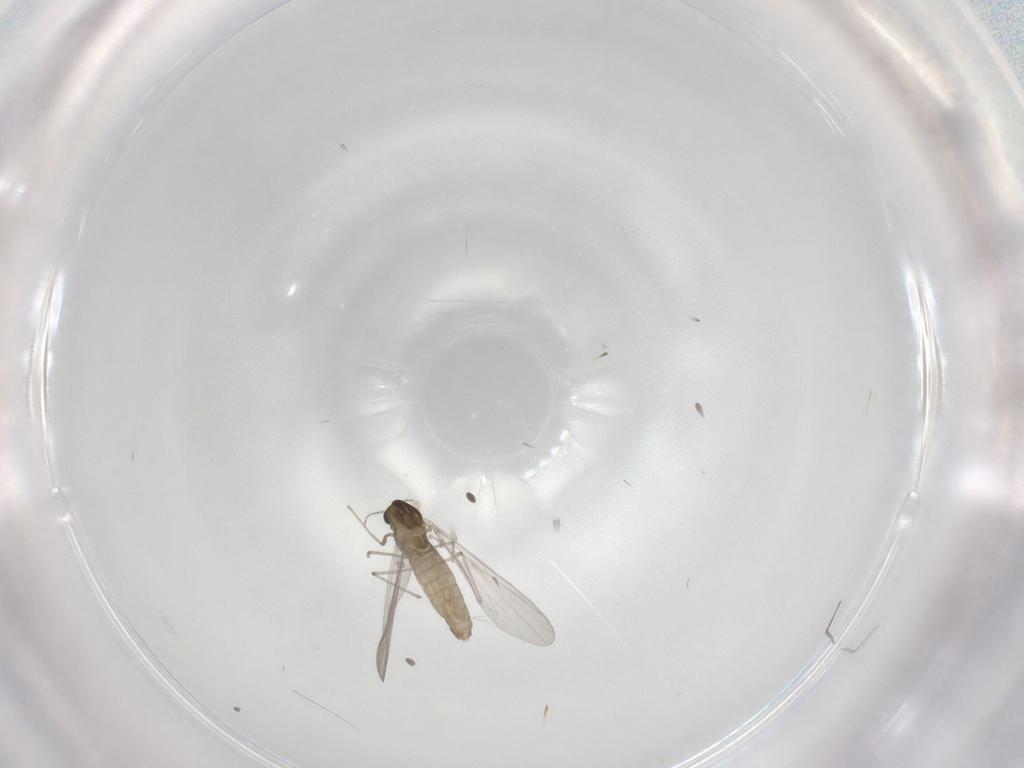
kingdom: Animalia
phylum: Arthropoda
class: Insecta
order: Diptera
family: Chironomidae
